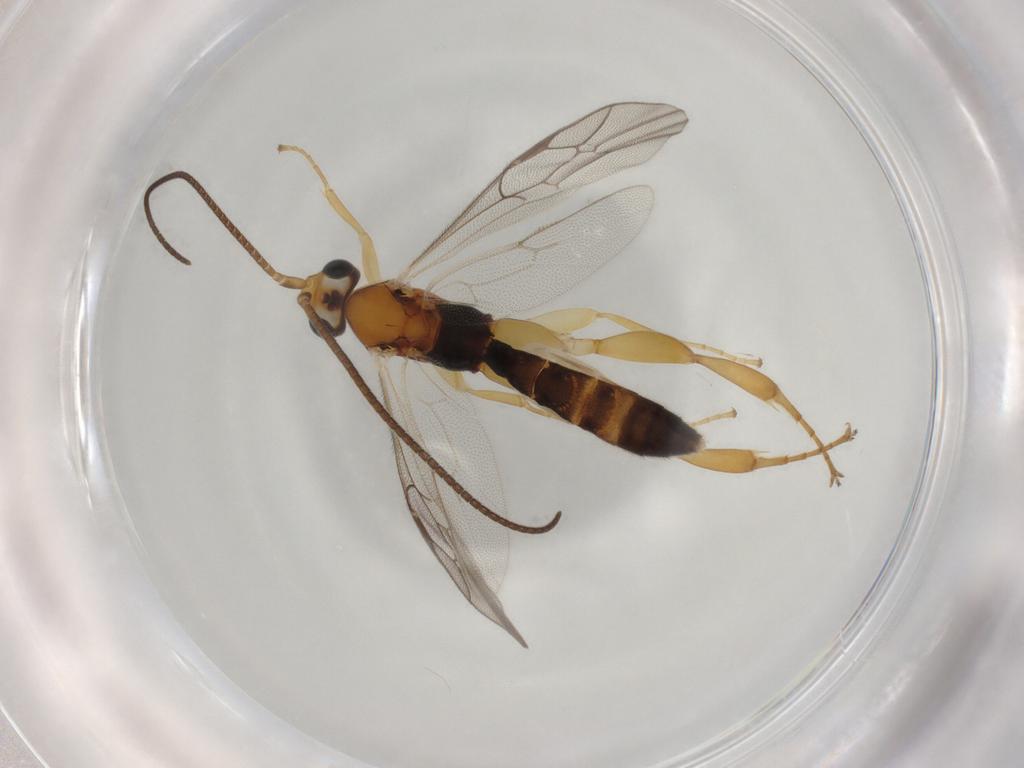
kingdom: Animalia
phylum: Arthropoda
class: Insecta
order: Hymenoptera
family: Ichneumonidae
